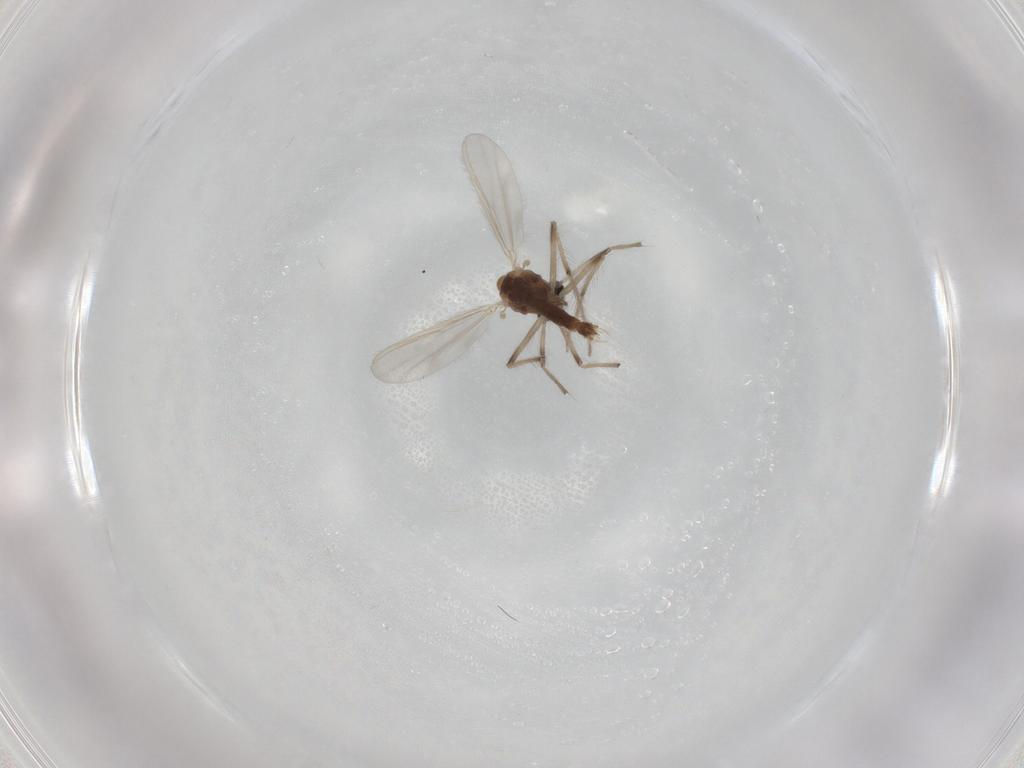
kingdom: Animalia
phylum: Arthropoda
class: Insecta
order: Diptera
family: Chironomidae
